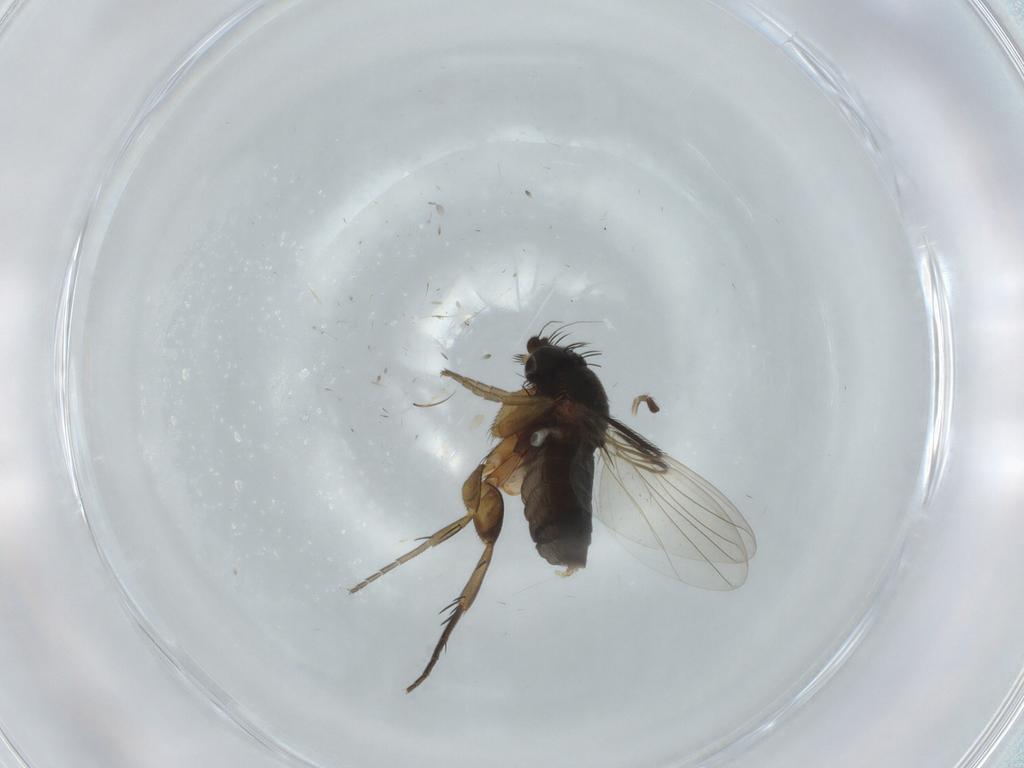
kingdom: Animalia
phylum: Arthropoda
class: Insecta
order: Diptera
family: Phoridae
